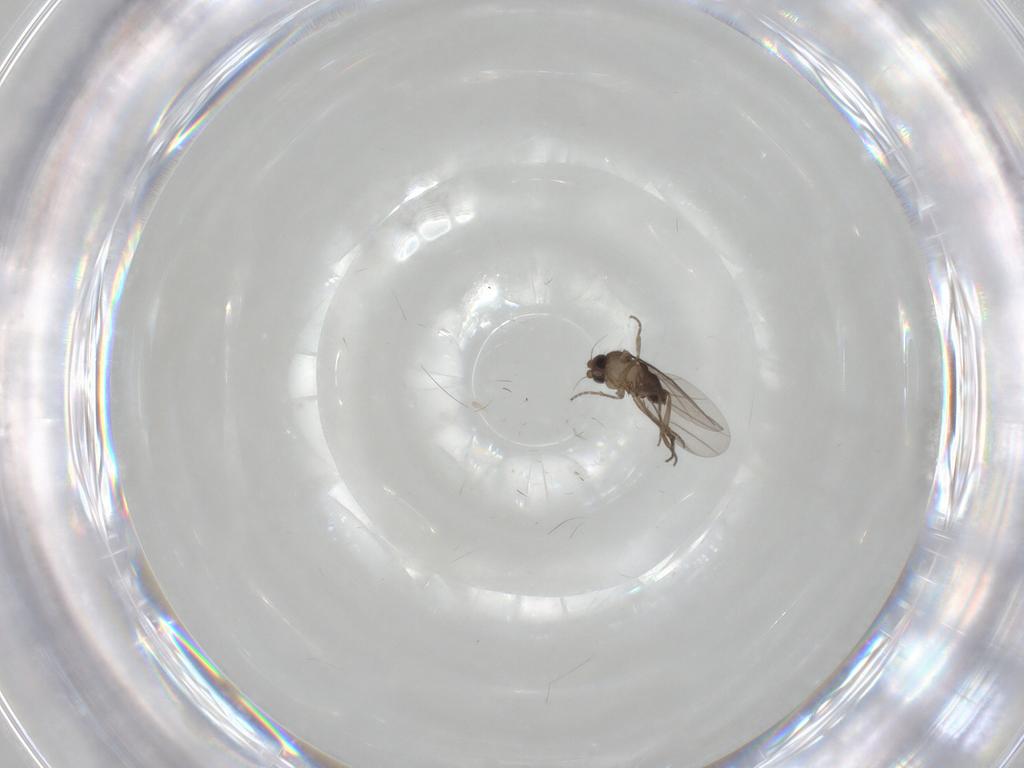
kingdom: Animalia
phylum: Arthropoda
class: Insecta
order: Diptera
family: Phoridae
